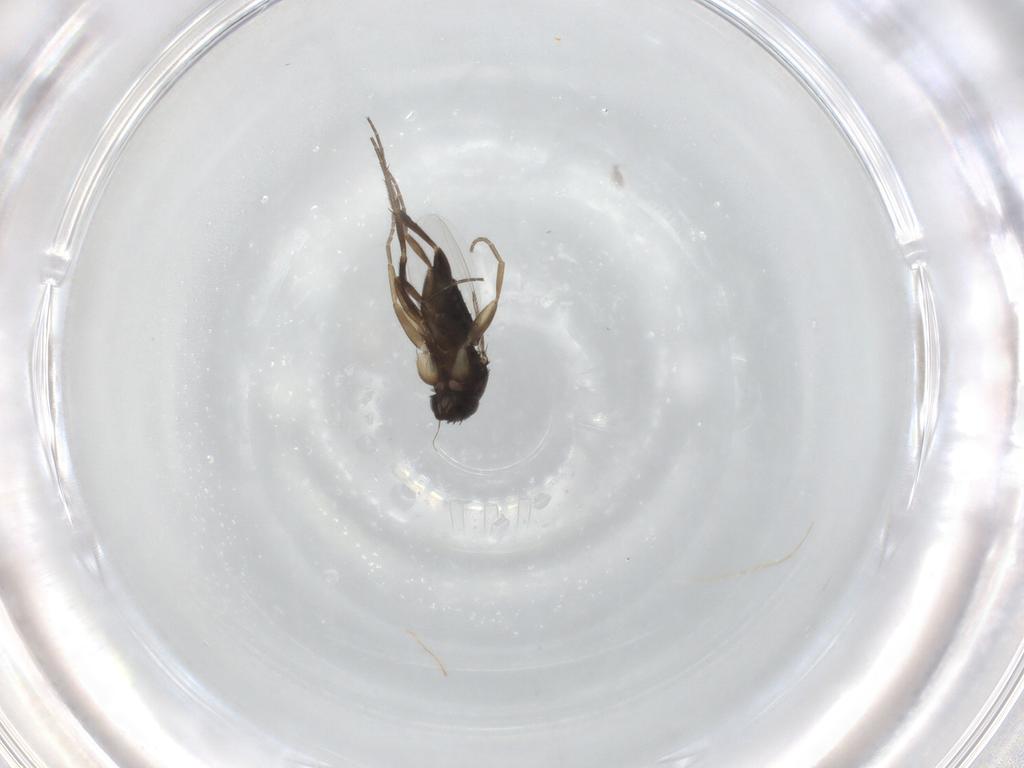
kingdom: Animalia
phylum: Arthropoda
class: Insecta
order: Diptera
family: Phoridae
